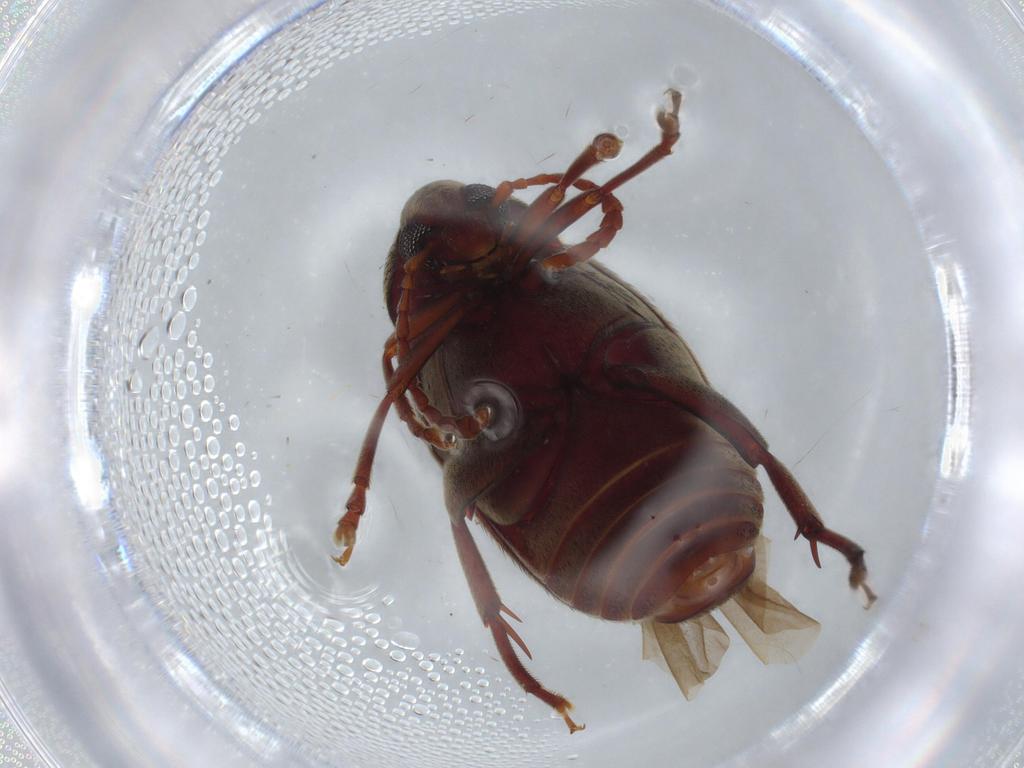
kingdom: Animalia
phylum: Arthropoda
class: Insecta
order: Coleoptera
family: Chrysomelidae
